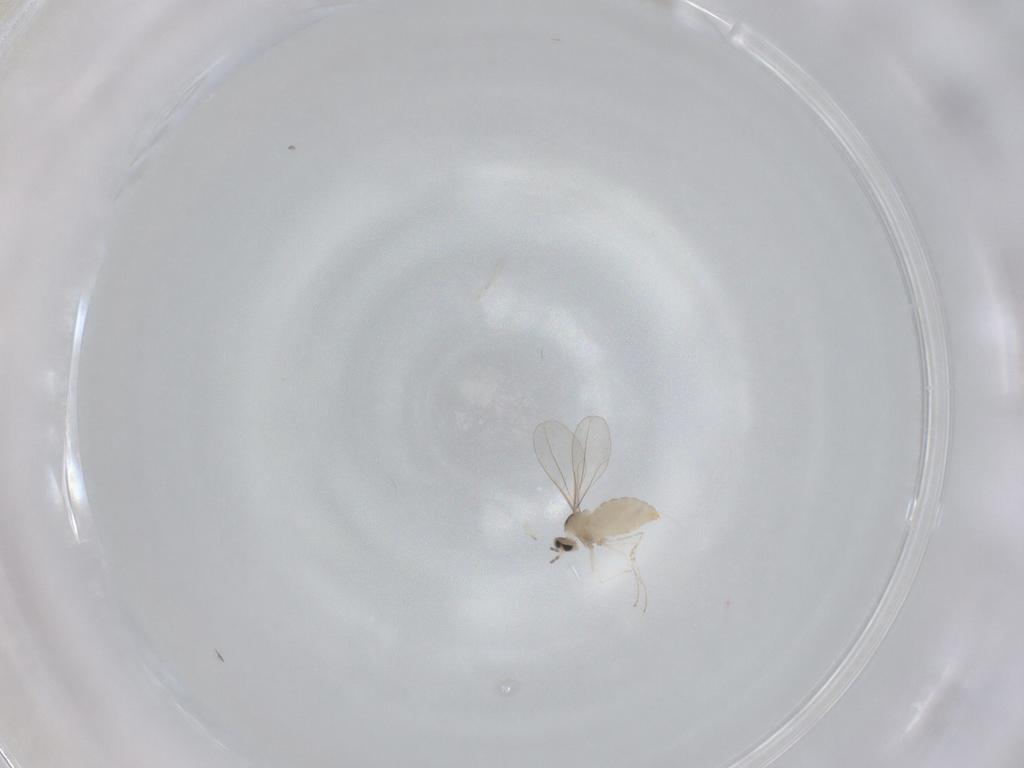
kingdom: Animalia
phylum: Arthropoda
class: Insecta
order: Diptera
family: Cecidomyiidae
